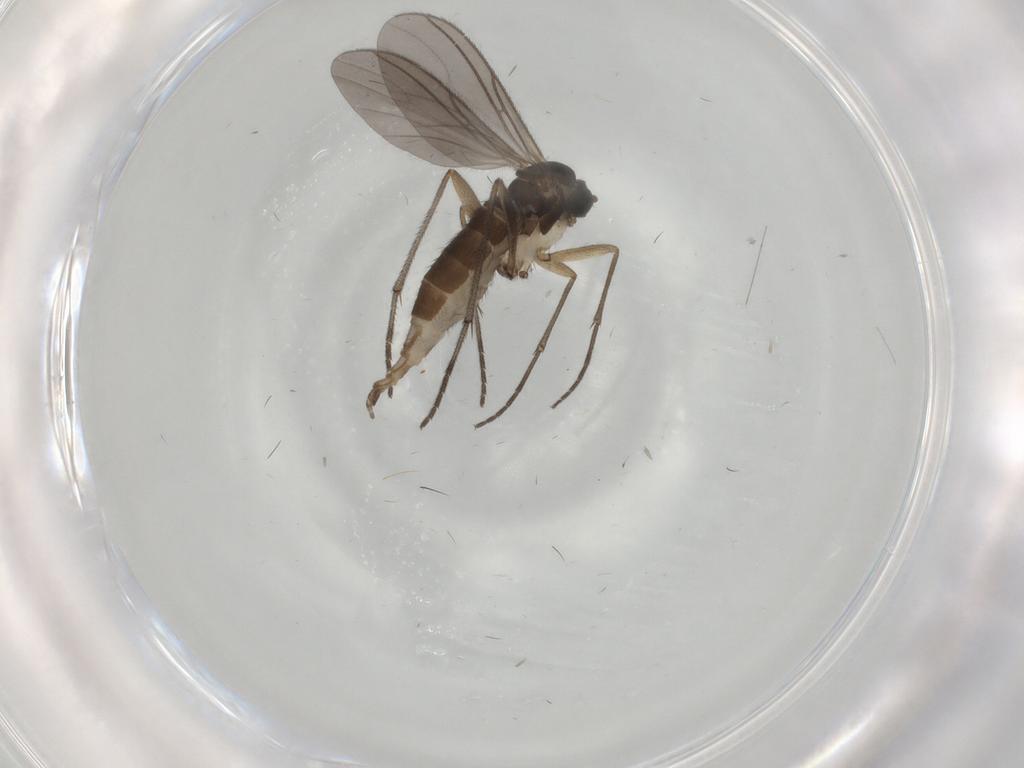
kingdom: Animalia
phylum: Arthropoda
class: Insecta
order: Diptera
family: Sciaridae
